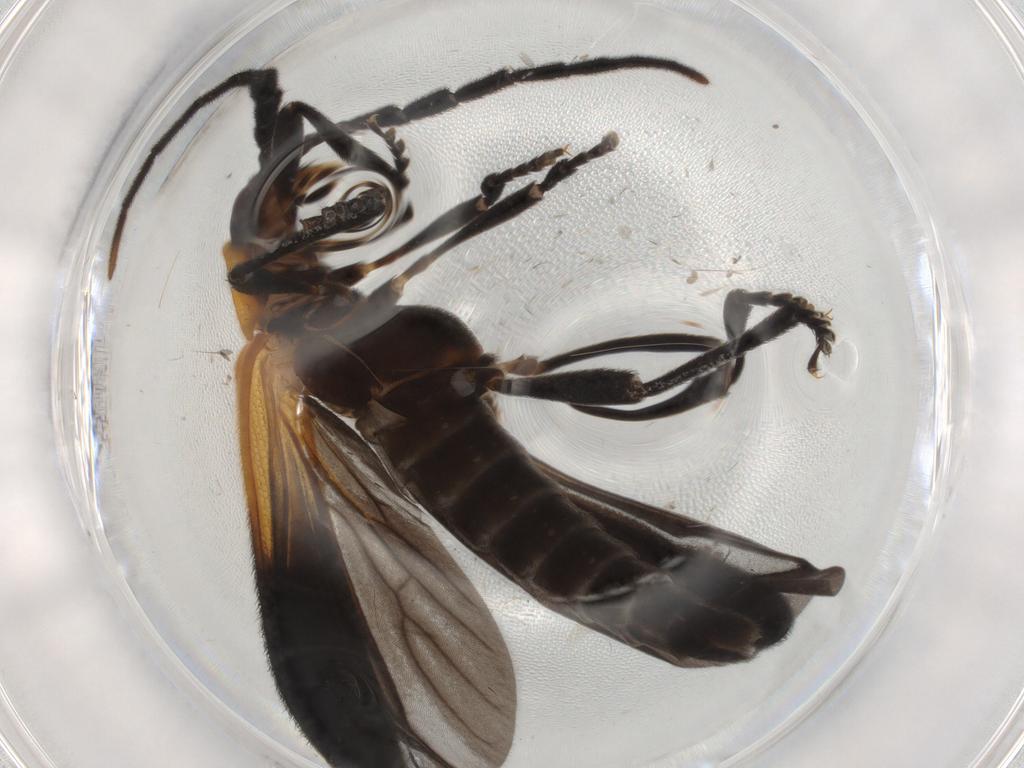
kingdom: Animalia
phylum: Arthropoda
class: Insecta
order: Coleoptera
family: Lycidae
